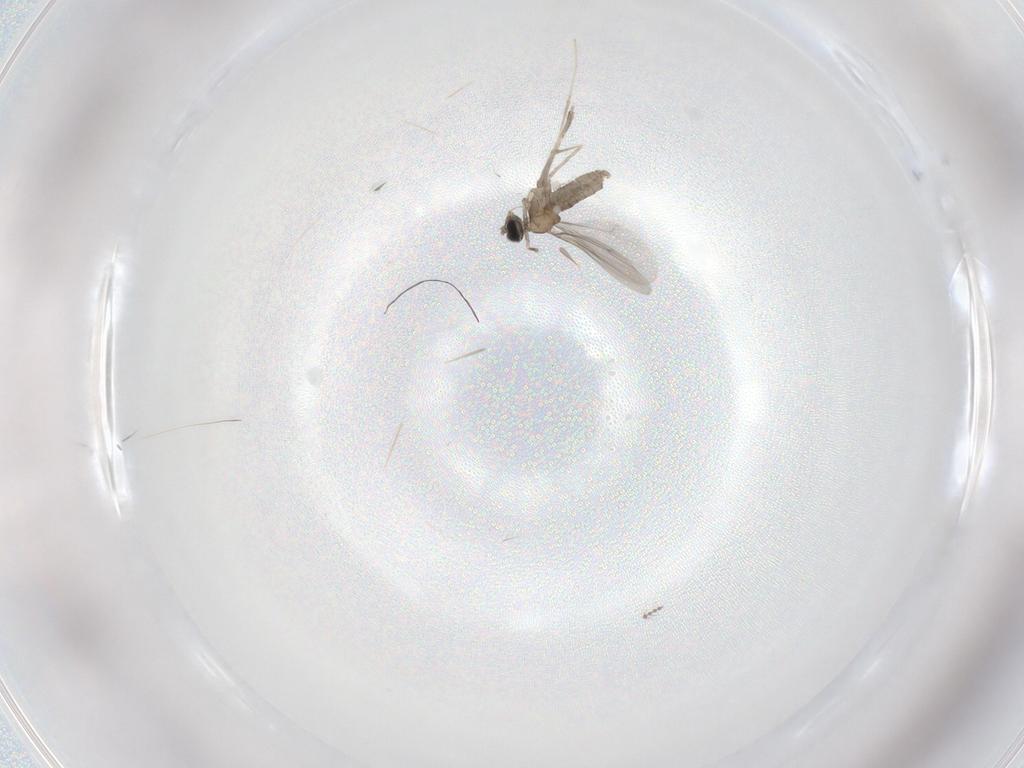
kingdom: Animalia
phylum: Arthropoda
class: Insecta
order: Diptera
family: Cecidomyiidae
